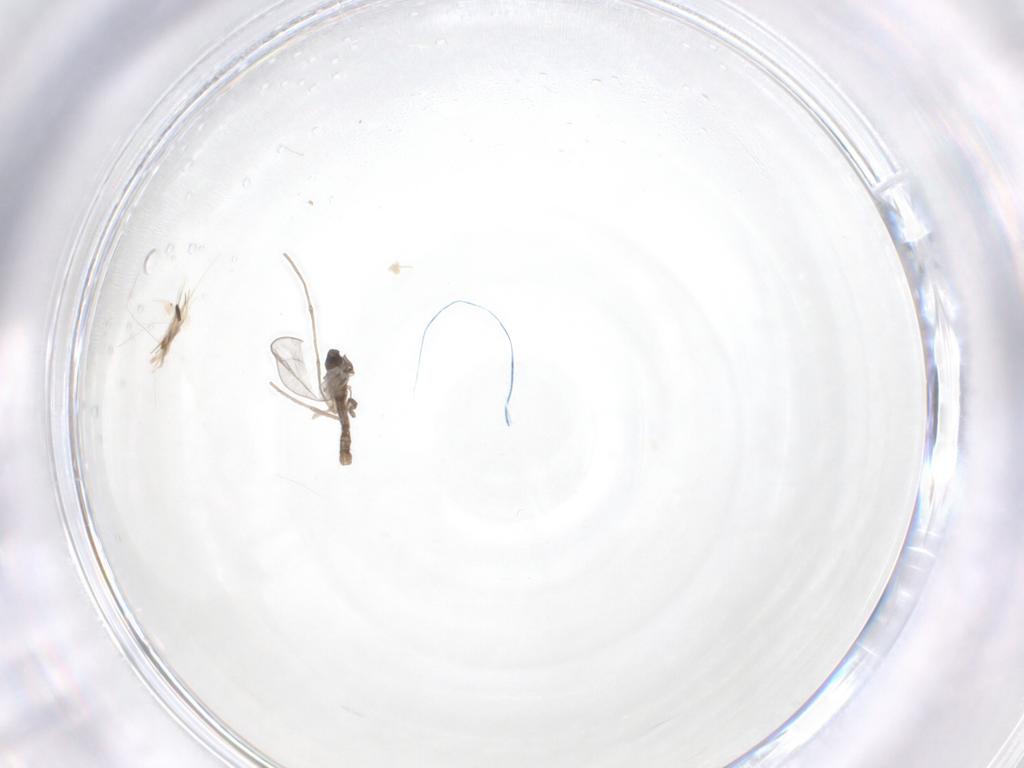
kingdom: Animalia
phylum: Arthropoda
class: Insecta
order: Diptera
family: Cecidomyiidae
